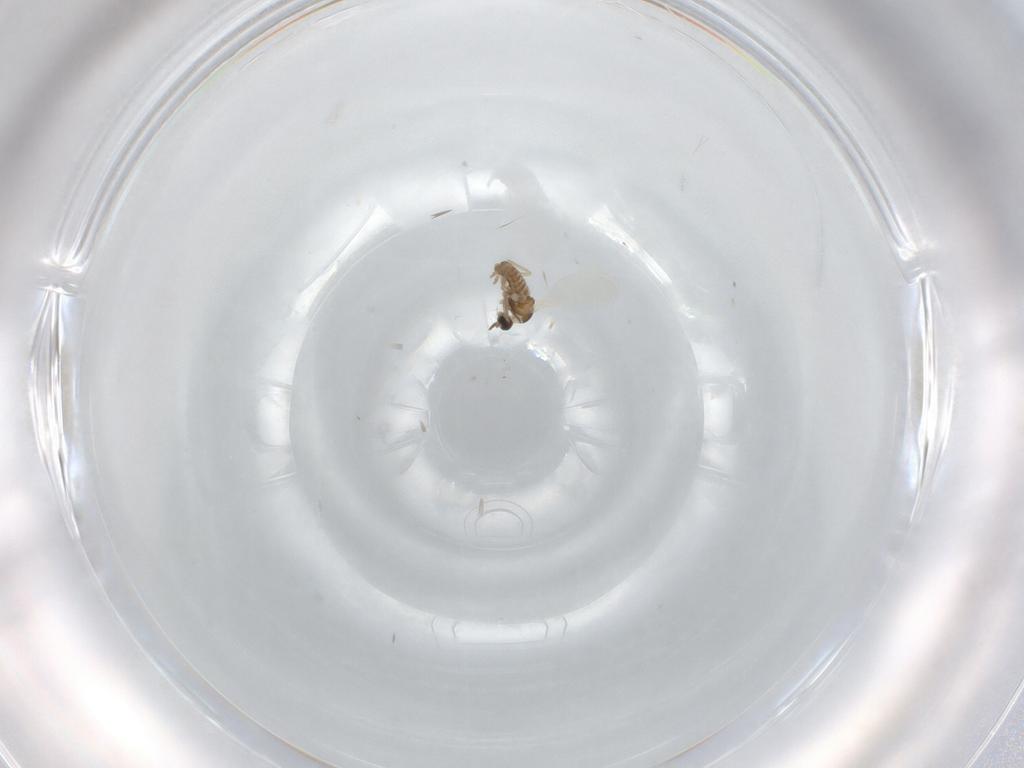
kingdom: Animalia
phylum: Arthropoda
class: Insecta
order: Diptera
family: Cecidomyiidae
